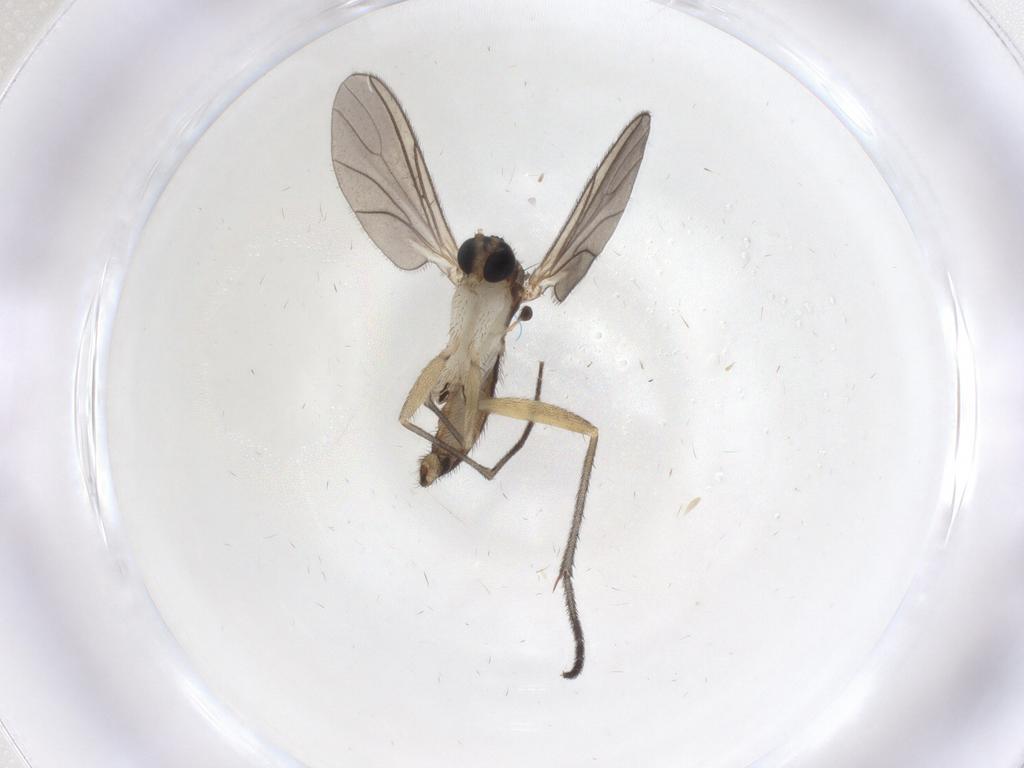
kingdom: Animalia
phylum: Arthropoda
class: Insecta
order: Diptera
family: Sciaridae
